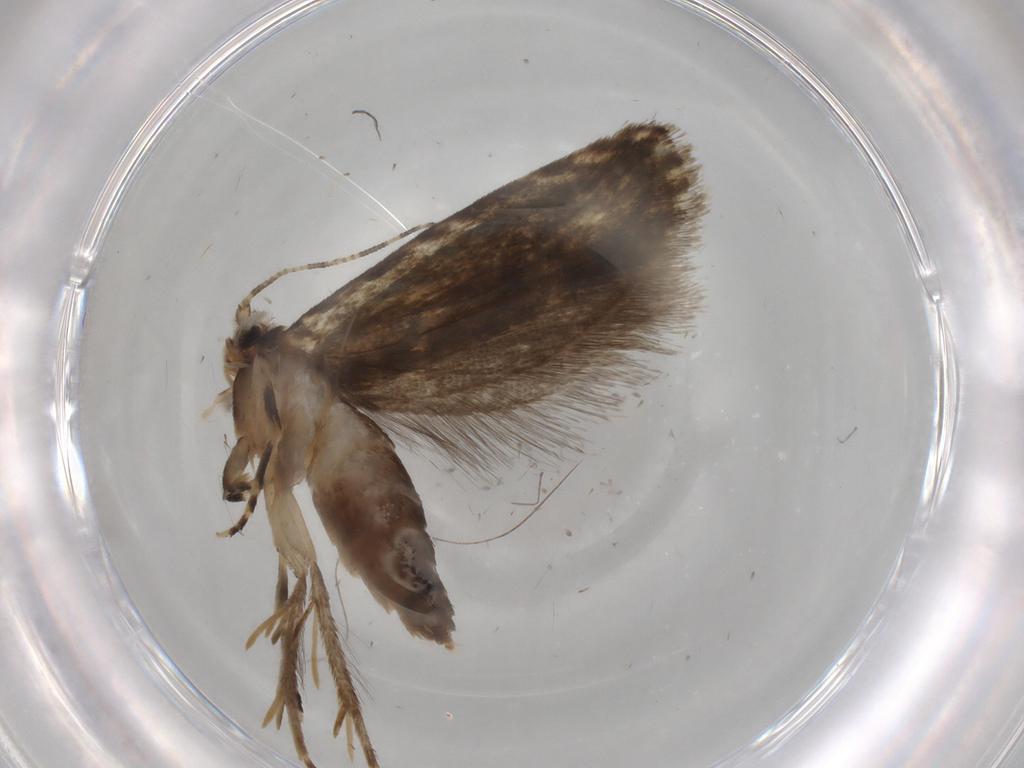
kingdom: Animalia
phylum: Arthropoda
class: Insecta
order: Lepidoptera
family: Tineidae
